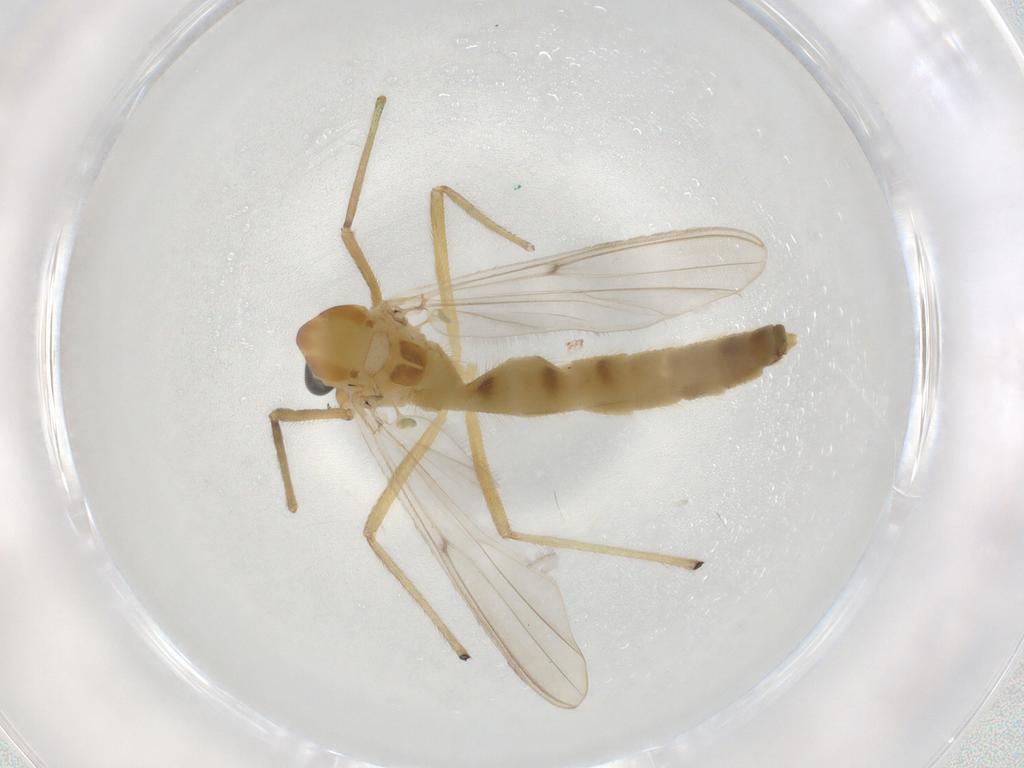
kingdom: Animalia
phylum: Arthropoda
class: Insecta
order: Diptera
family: Chironomidae
